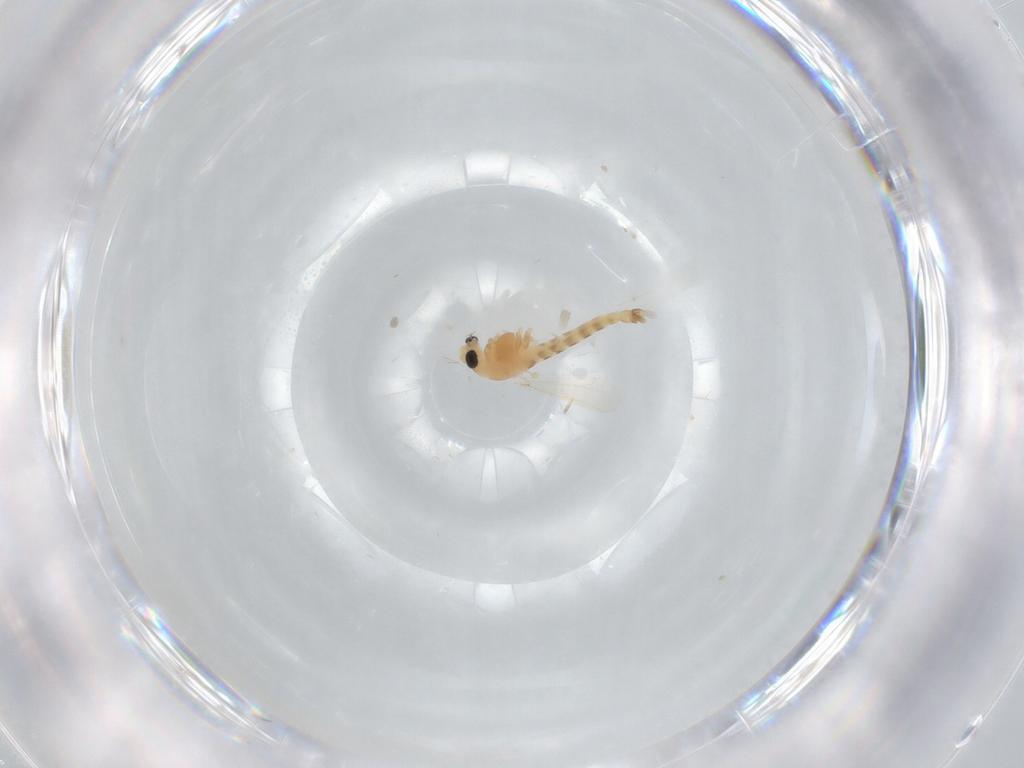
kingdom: Animalia
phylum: Arthropoda
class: Insecta
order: Diptera
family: Chironomidae
